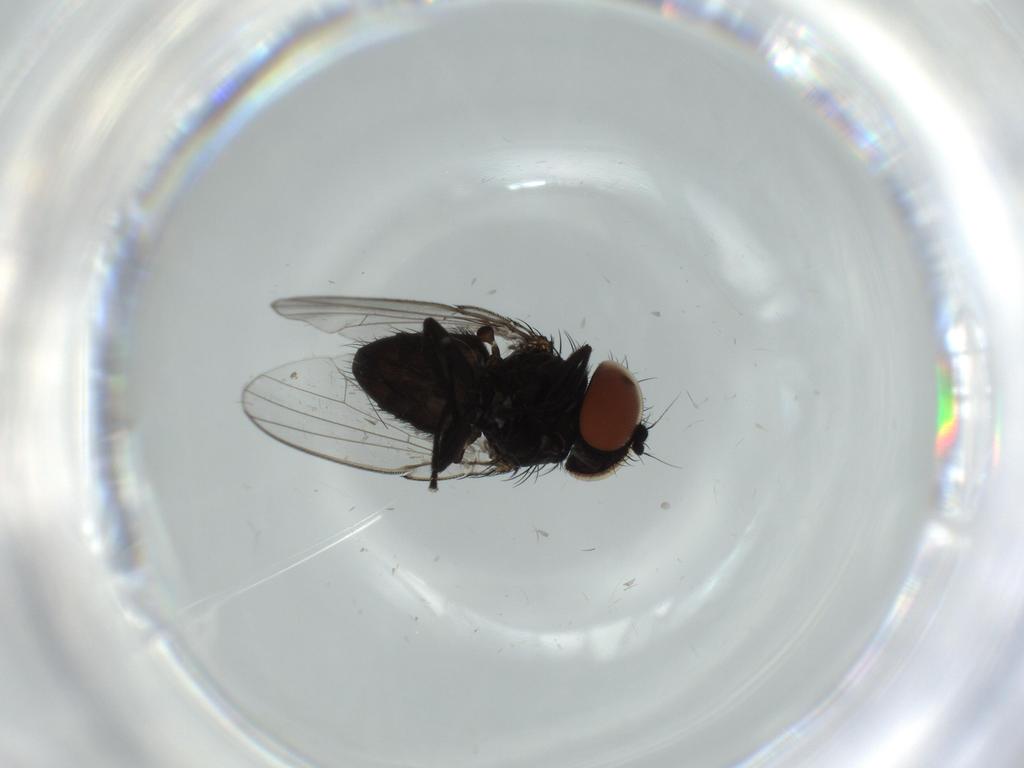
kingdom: Animalia
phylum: Arthropoda
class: Insecta
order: Diptera
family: Milichiidae
